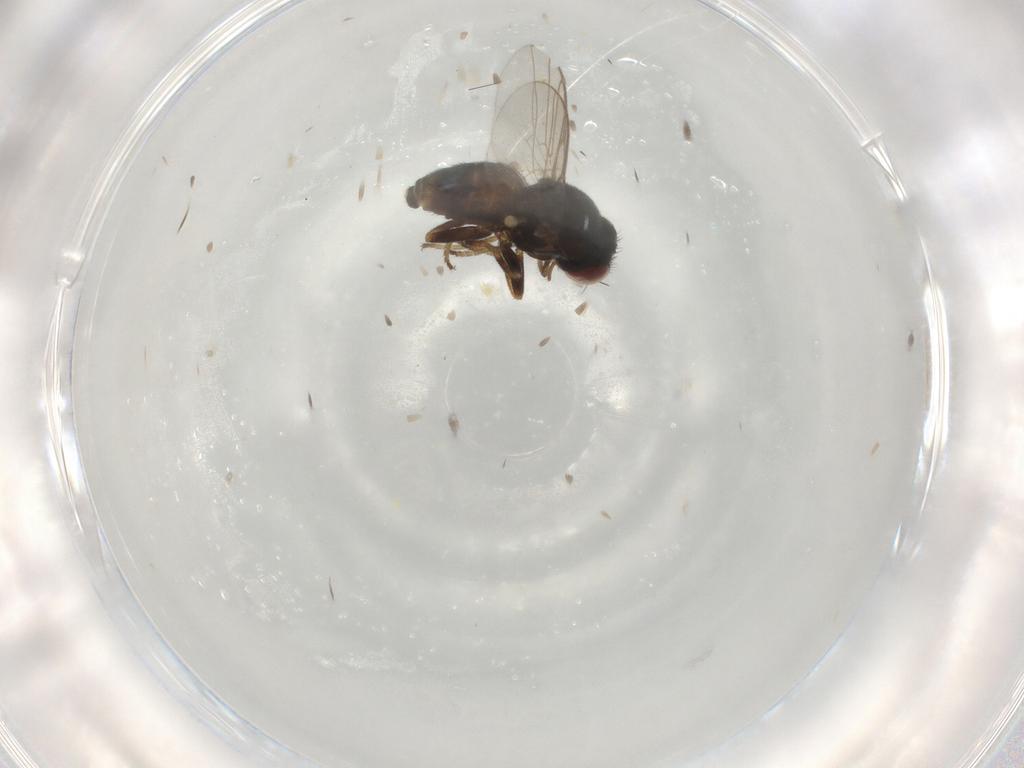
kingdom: Animalia
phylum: Arthropoda
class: Insecta
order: Diptera
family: Chloropidae
